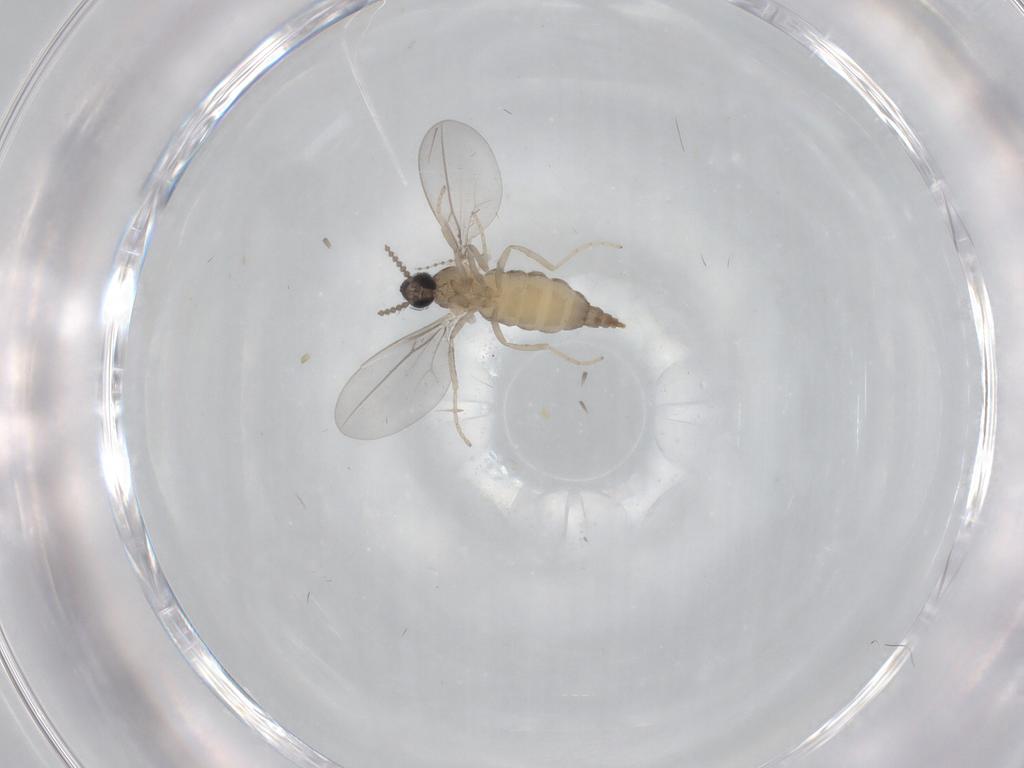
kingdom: Animalia
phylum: Arthropoda
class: Insecta
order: Diptera
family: Cecidomyiidae
